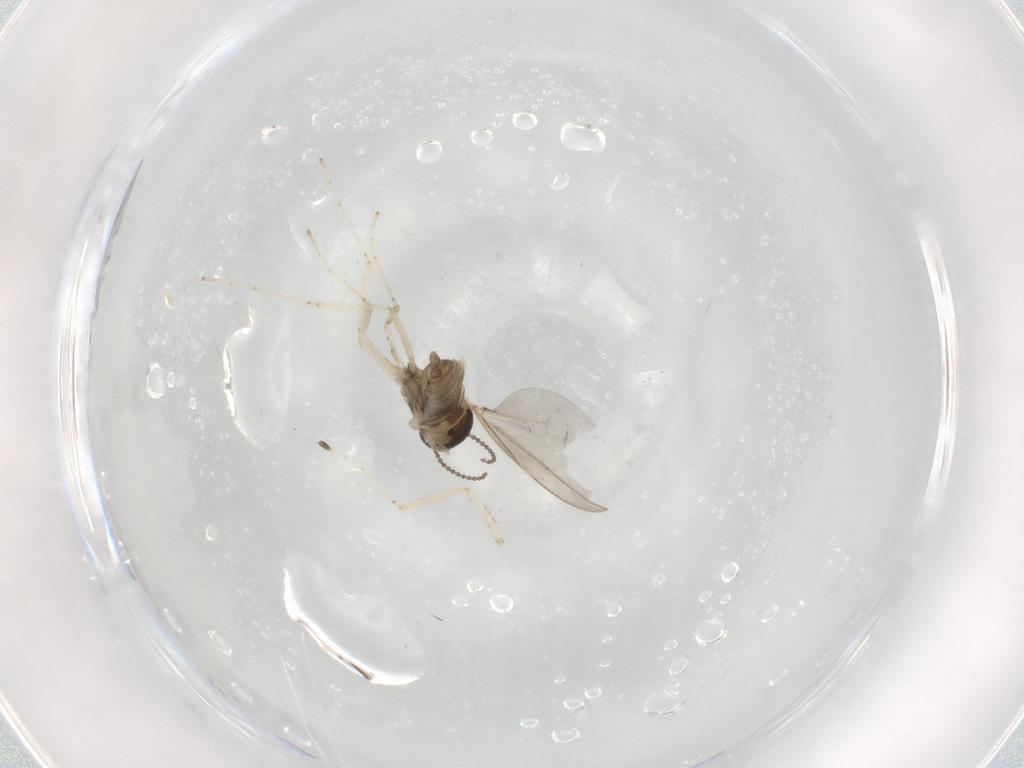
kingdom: Animalia
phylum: Arthropoda
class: Insecta
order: Diptera
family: Cecidomyiidae
